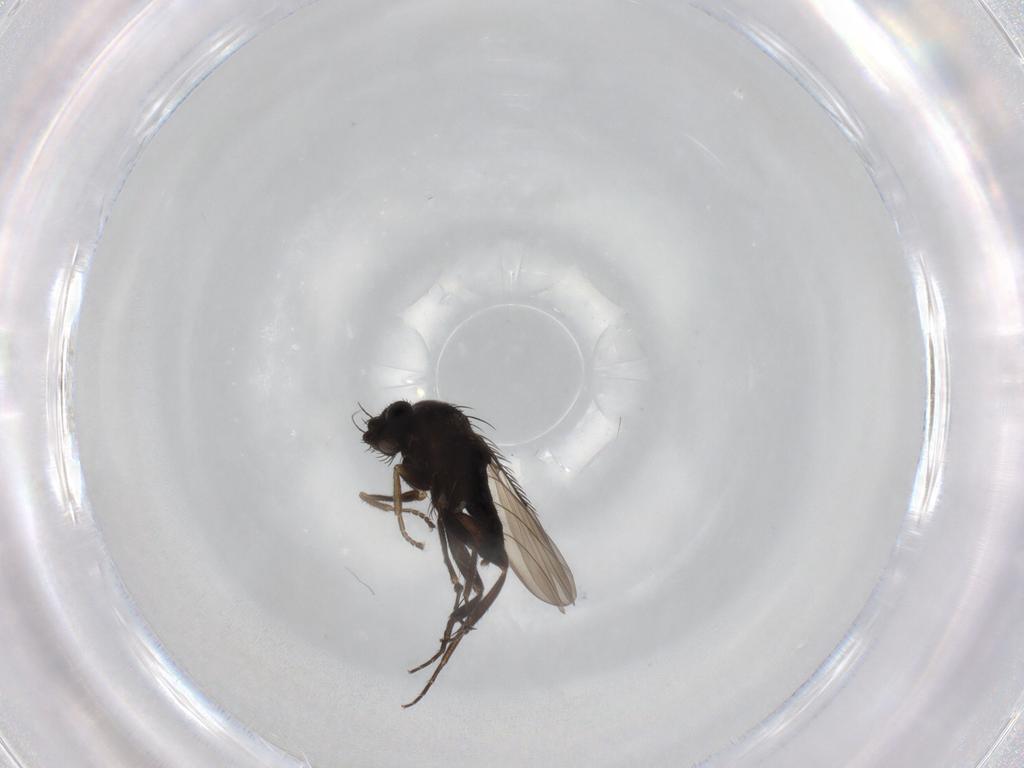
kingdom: Animalia
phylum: Arthropoda
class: Insecta
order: Diptera
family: Phoridae
